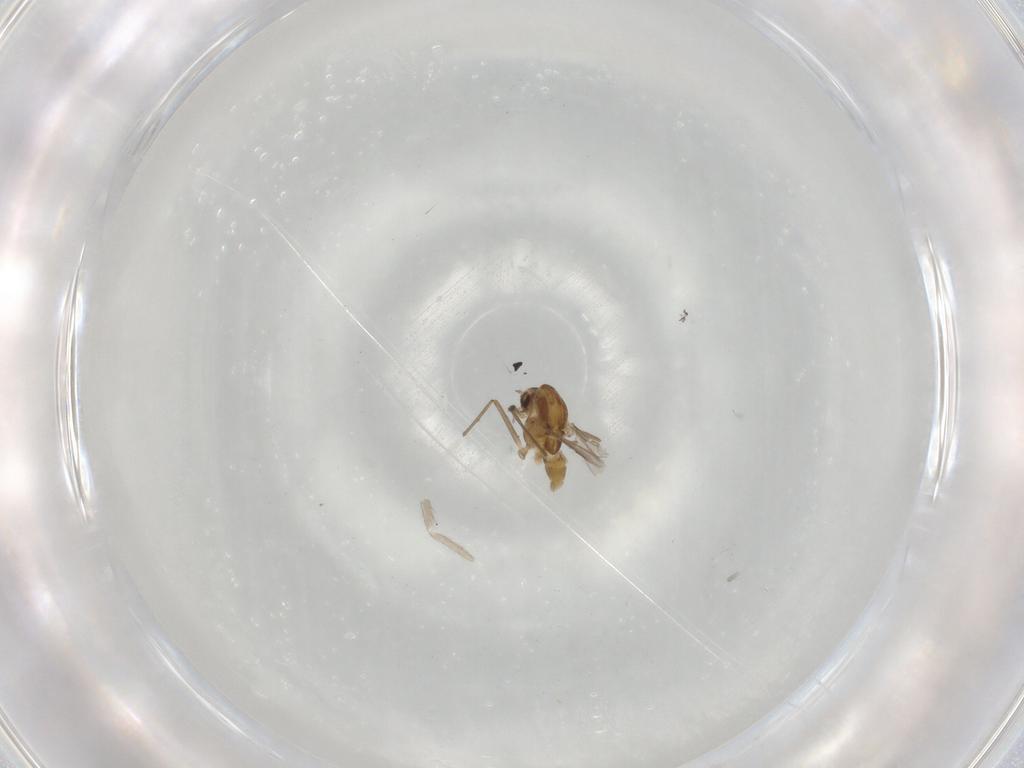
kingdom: Animalia
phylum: Arthropoda
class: Insecta
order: Diptera
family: Chironomidae
